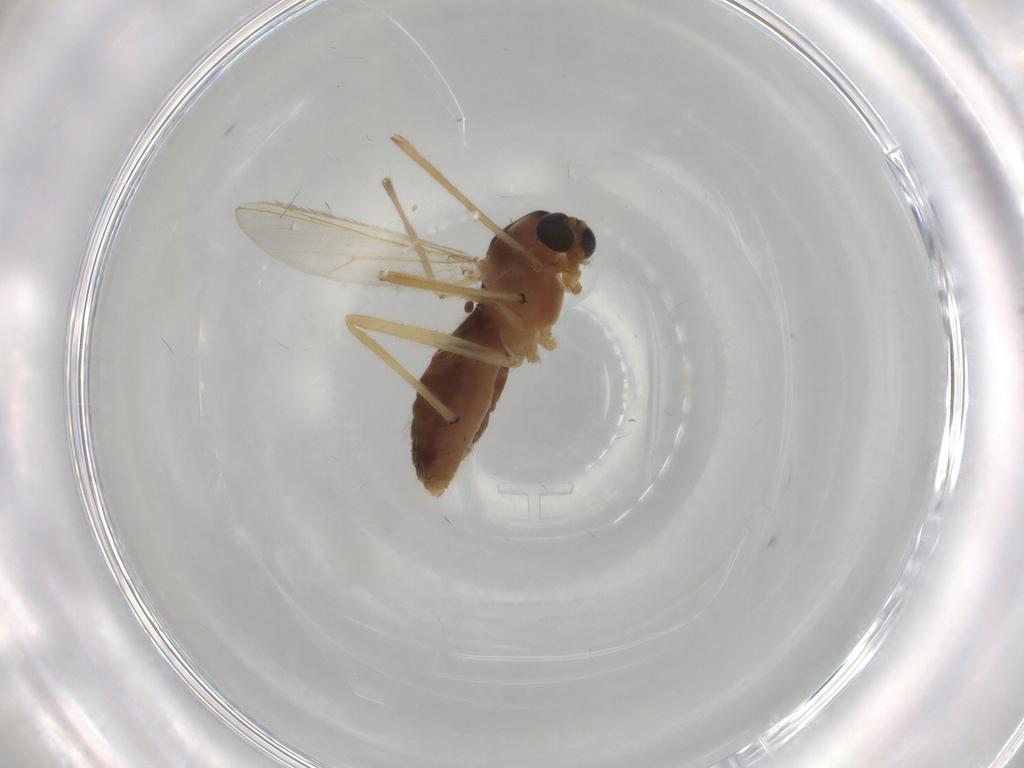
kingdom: Animalia
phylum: Arthropoda
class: Insecta
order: Diptera
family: Chironomidae
